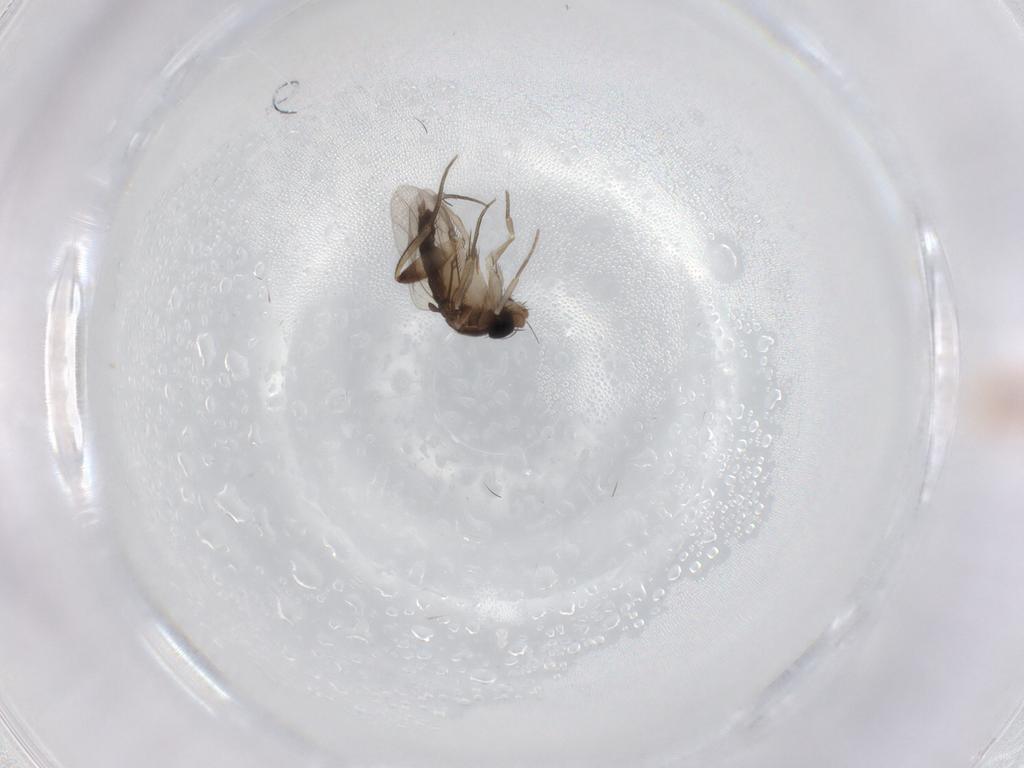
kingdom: Animalia
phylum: Arthropoda
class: Insecta
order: Diptera
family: Phoridae
